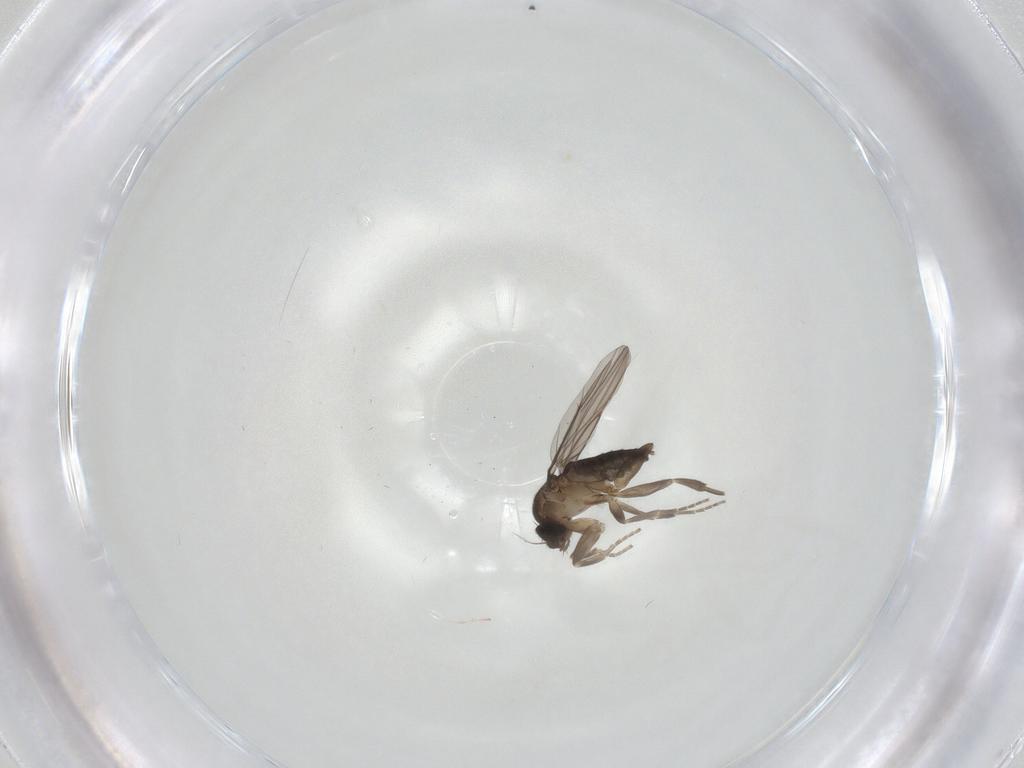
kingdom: Animalia
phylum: Arthropoda
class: Insecta
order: Diptera
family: Phoridae
